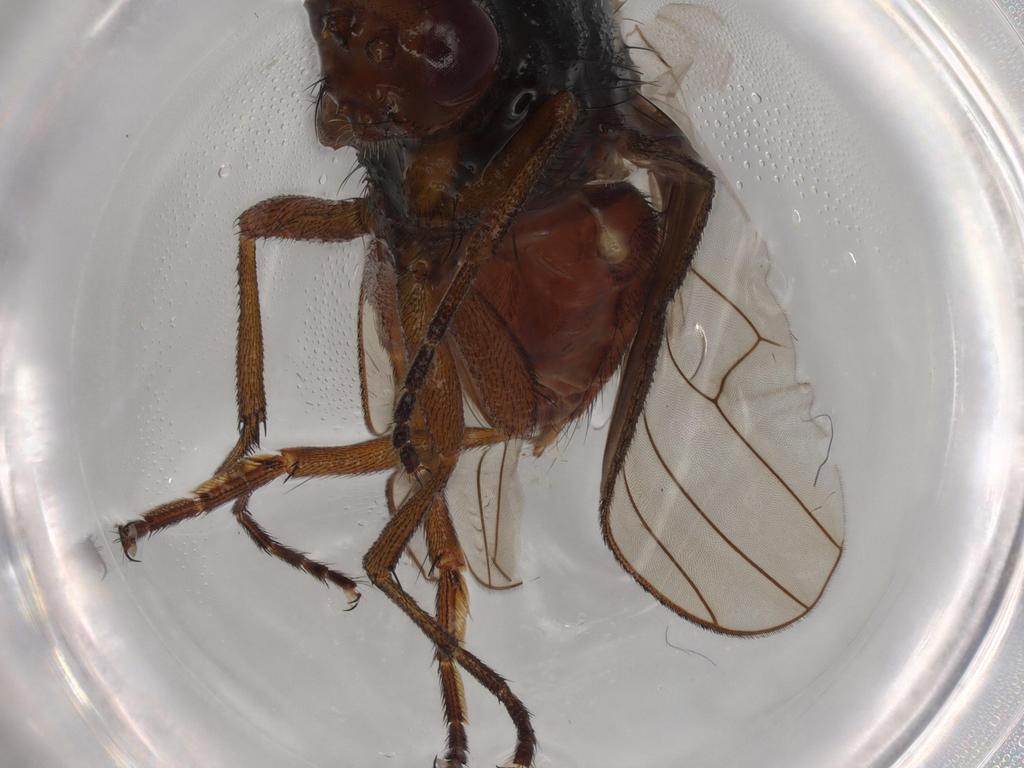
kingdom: Animalia
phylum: Arthropoda
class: Insecta
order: Diptera
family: Heleomyzidae
